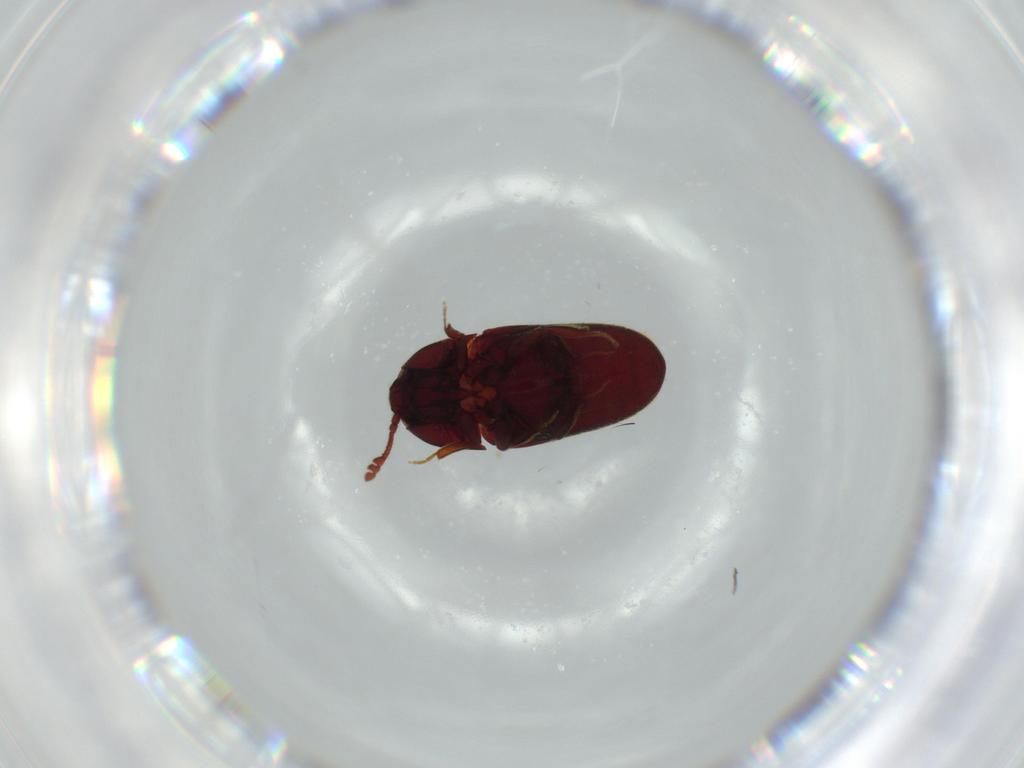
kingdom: Animalia
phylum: Arthropoda
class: Insecta
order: Coleoptera
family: Throscidae
